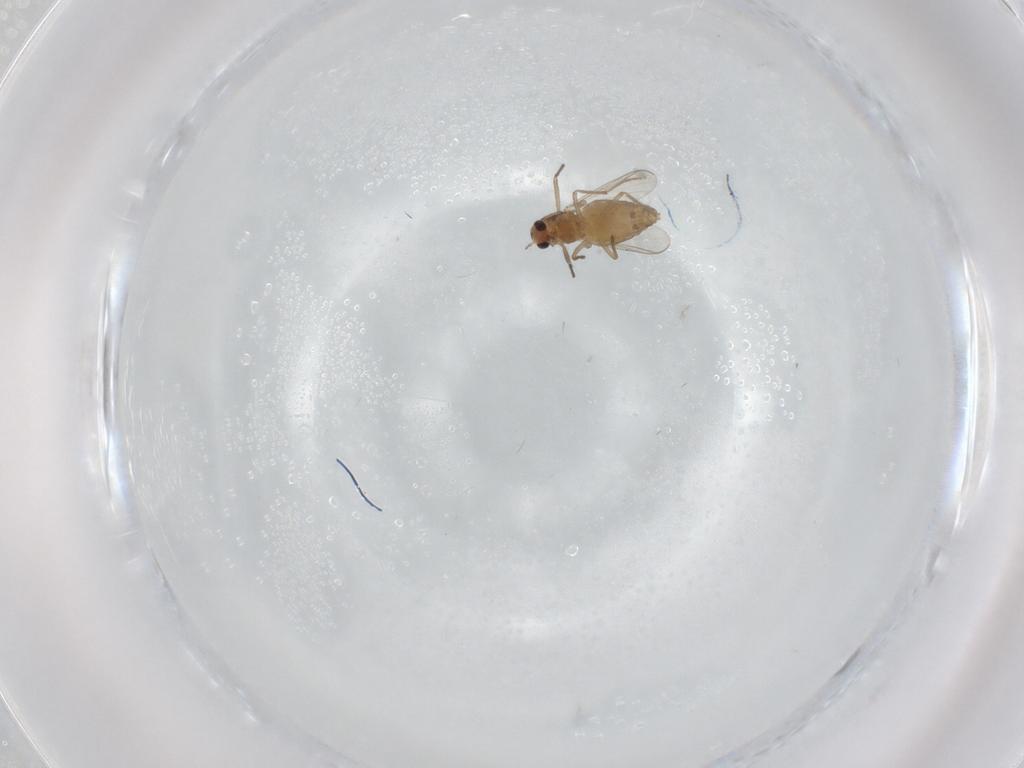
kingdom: Animalia
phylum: Arthropoda
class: Insecta
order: Diptera
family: Chironomidae
